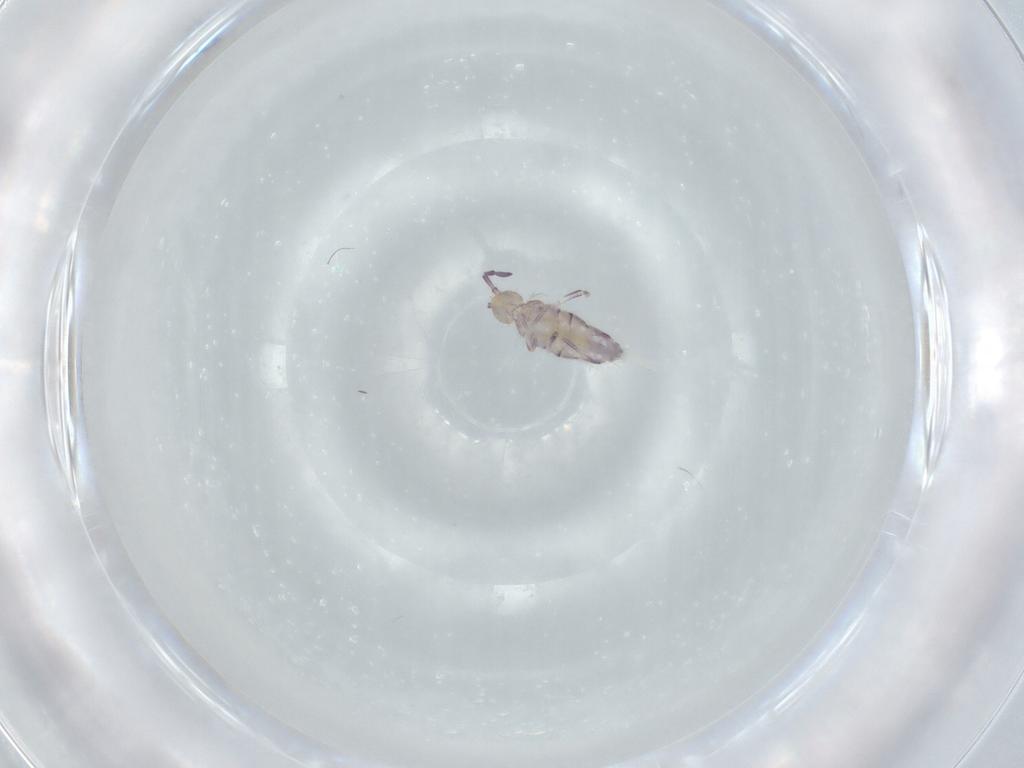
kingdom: Animalia
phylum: Arthropoda
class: Collembola
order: Entomobryomorpha
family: Entomobryidae
